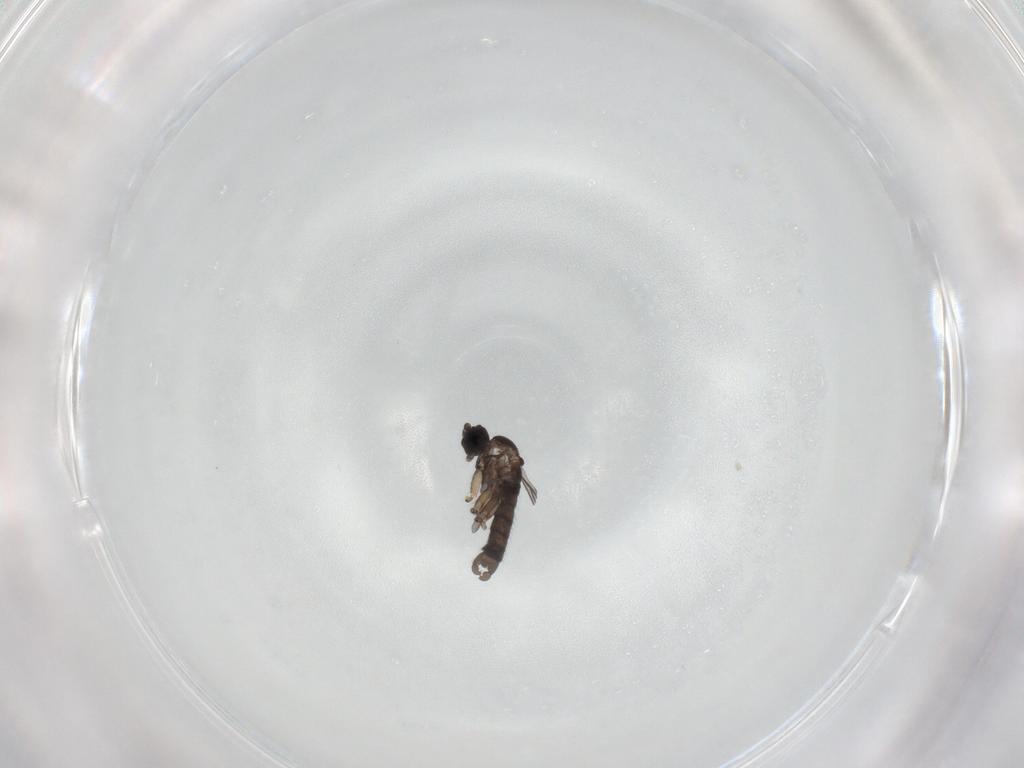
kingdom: Animalia
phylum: Arthropoda
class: Insecta
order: Diptera
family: Sciaridae
